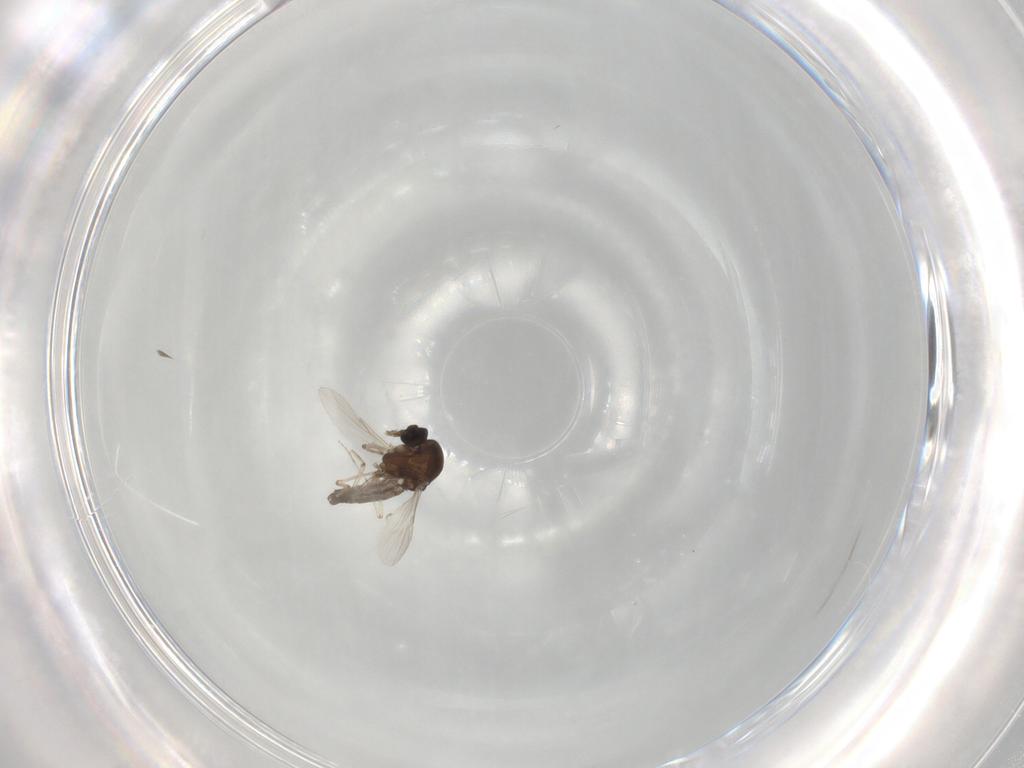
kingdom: Animalia
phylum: Arthropoda
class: Insecta
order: Diptera
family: Ceratopogonidae
